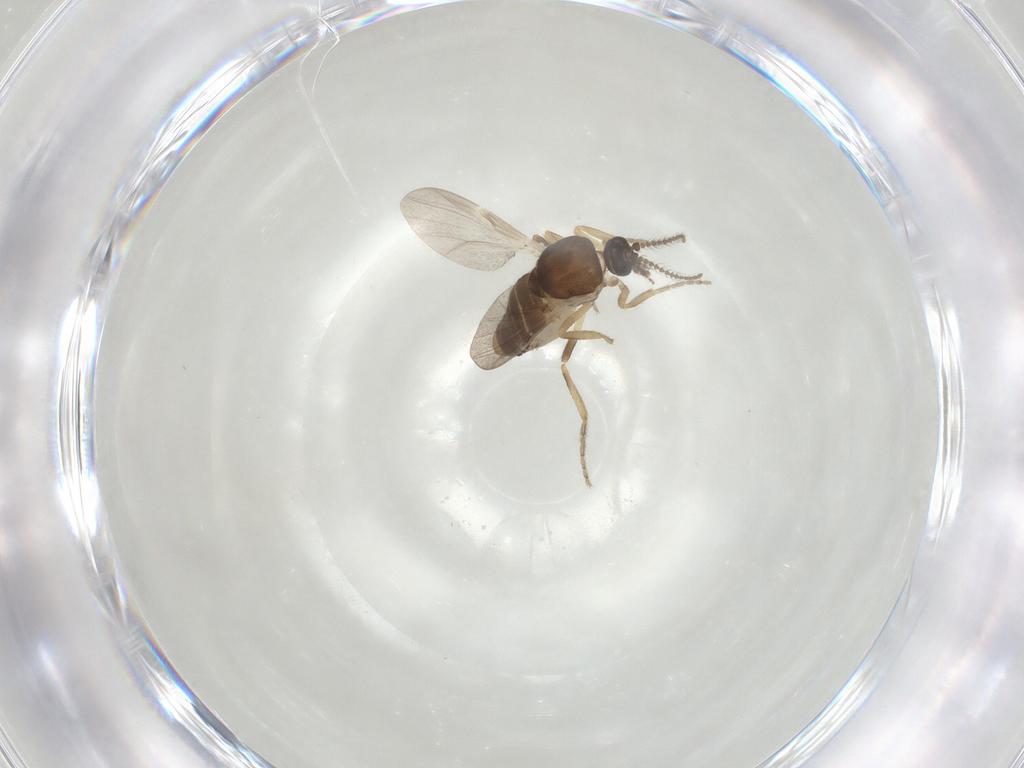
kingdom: Animalia
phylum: Arthropoda
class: Insecta
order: Diptera
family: Ceratopogonidae
